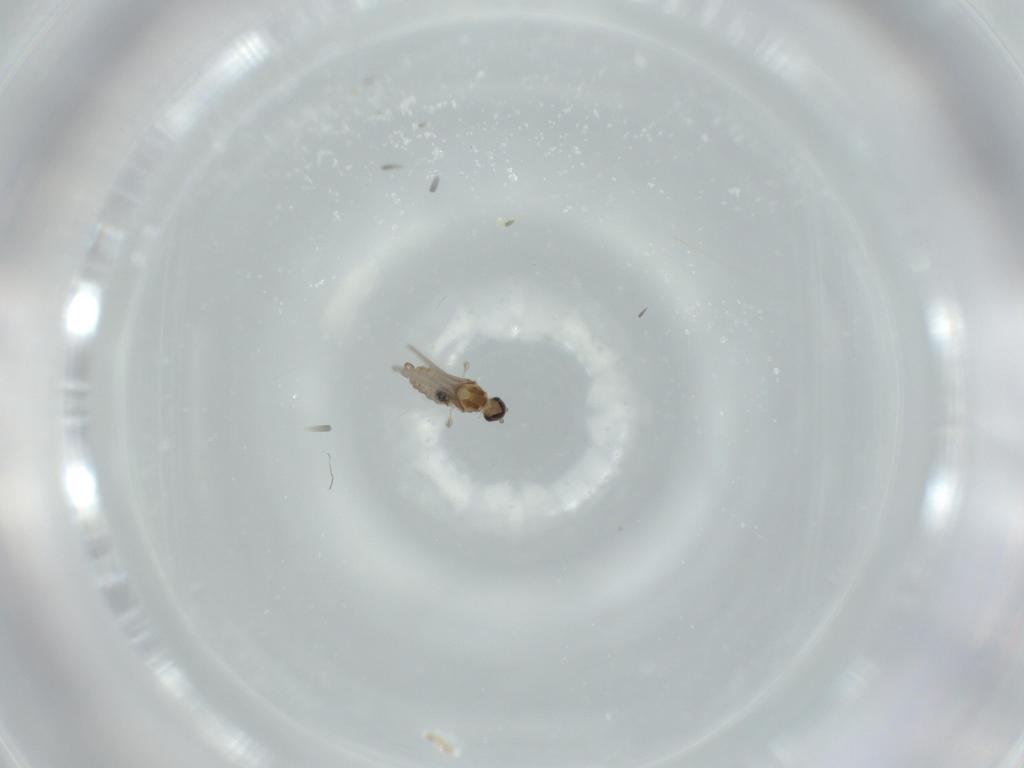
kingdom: Animalia
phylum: Arthropoda
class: Insecta
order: Diptera
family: Cecidomyiidae
